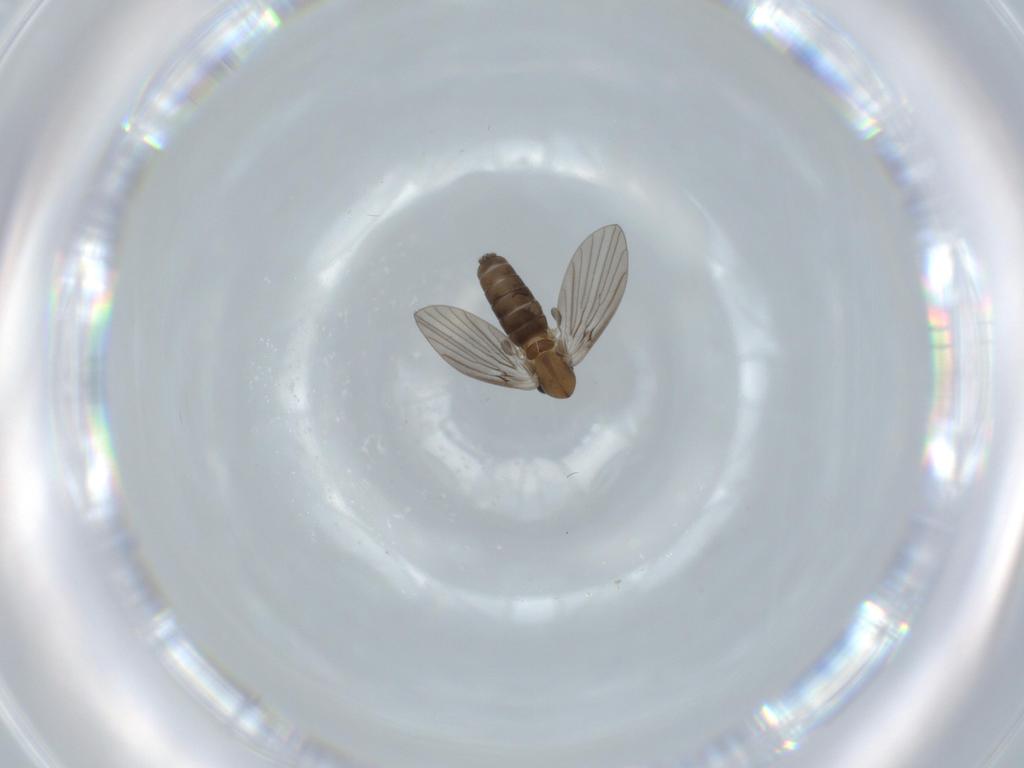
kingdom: Animalia
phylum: Arthropoda
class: Insecta
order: Diptera
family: Psychodidae
